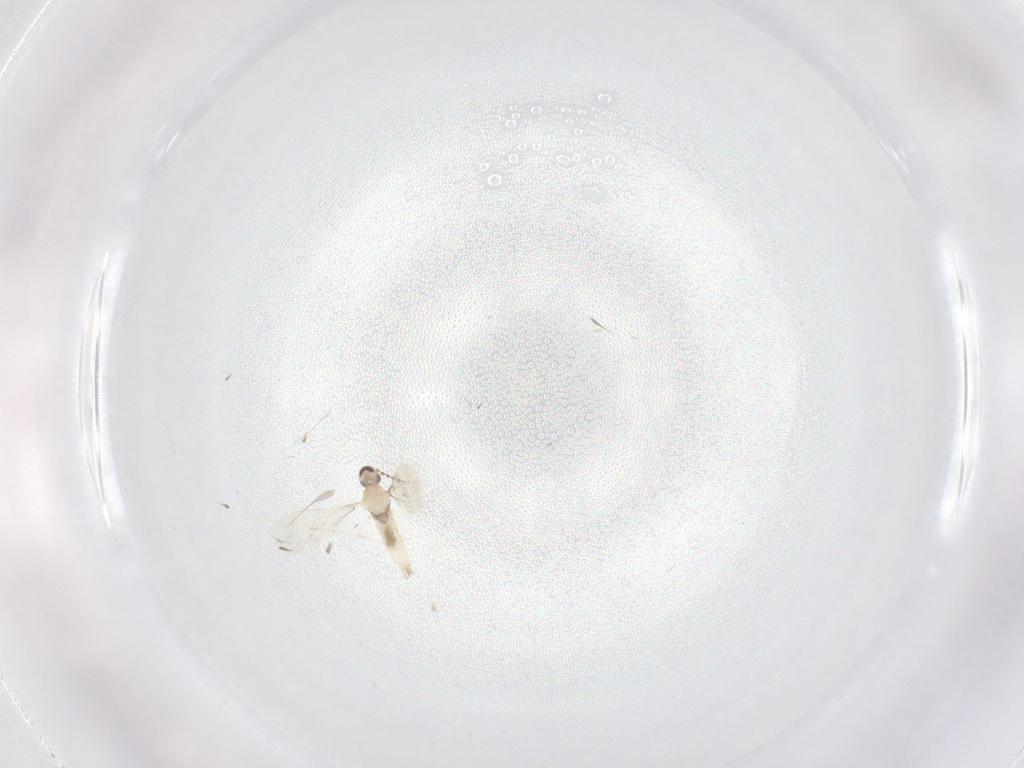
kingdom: Animalia
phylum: Arthropoda
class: Insecta
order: Diptera
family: Cecidomyiidae
